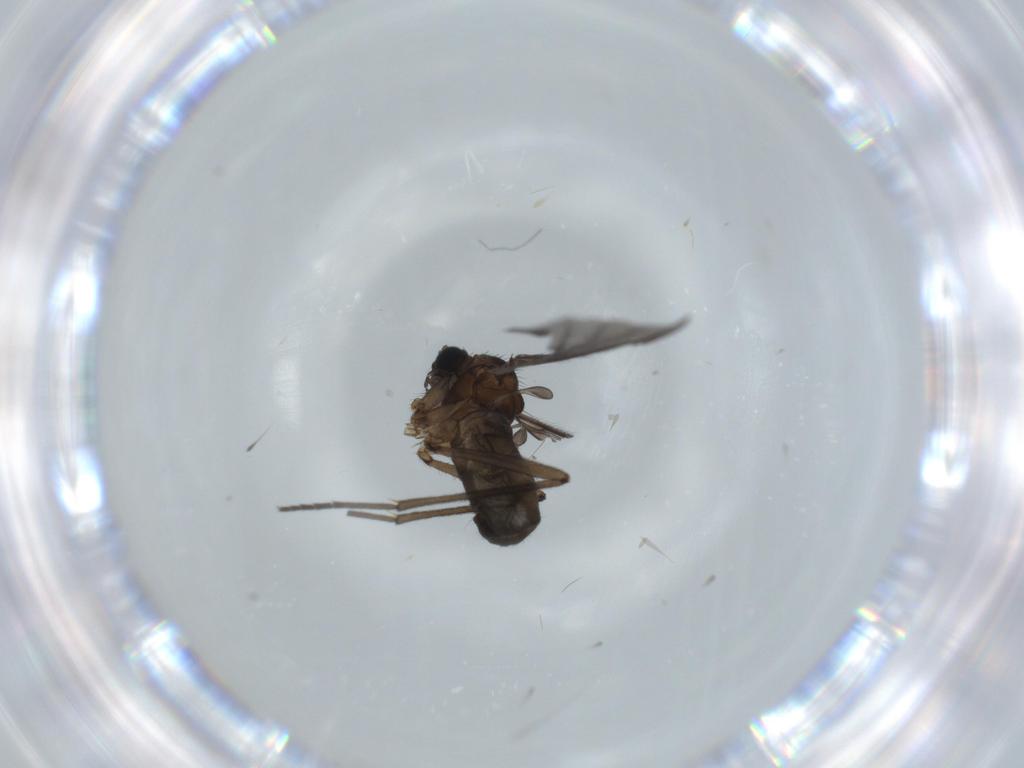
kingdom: Animalia
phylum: Arthropoda
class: Insecta
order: Diptera
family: Sciaridae
